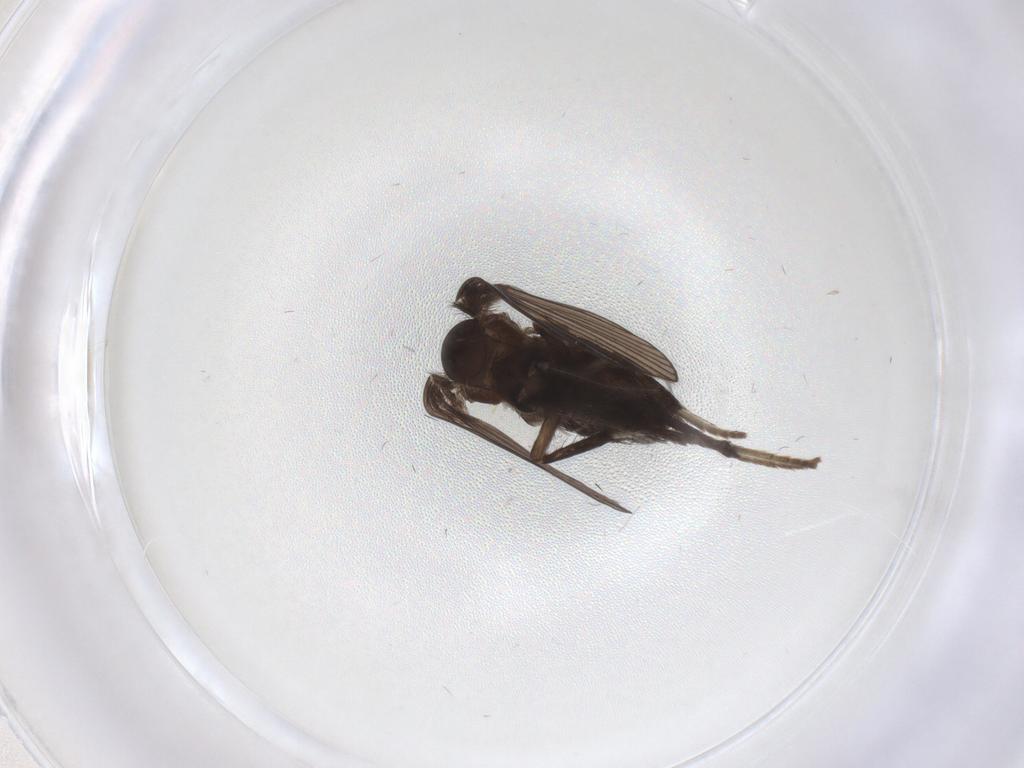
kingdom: Animalia
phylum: Arthropoda
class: Insecta
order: Diptera
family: Psychodidae
